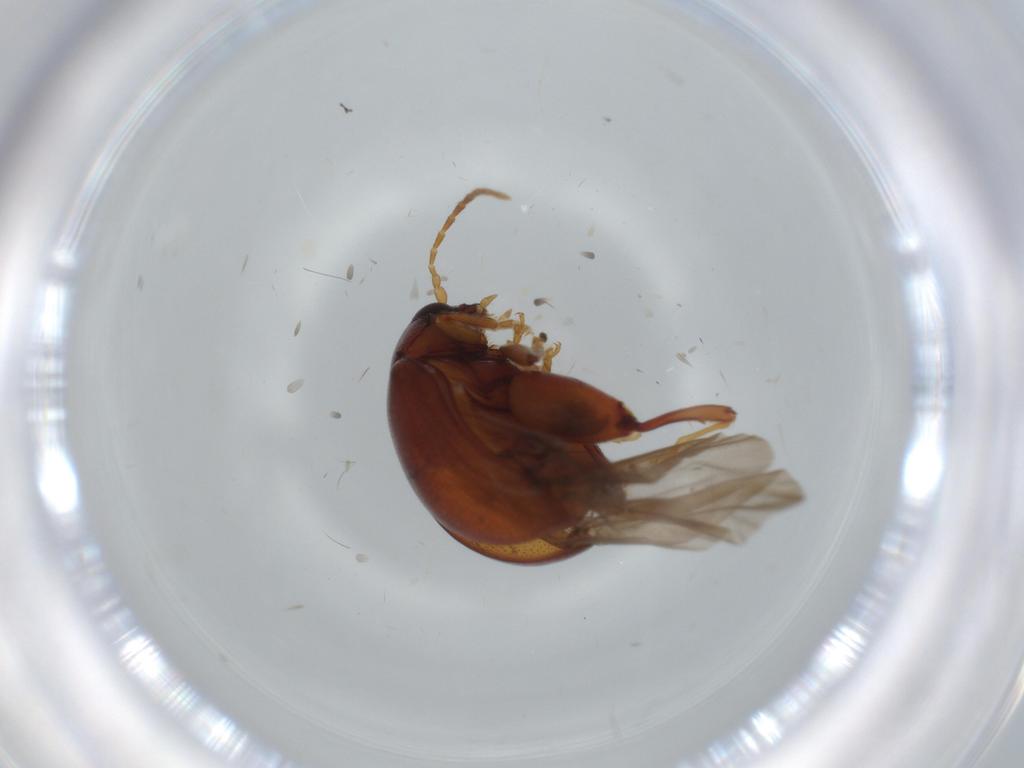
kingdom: Animalia
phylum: Arthropoda
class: Insecta
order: Coleoptera
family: Chrysomelidae
